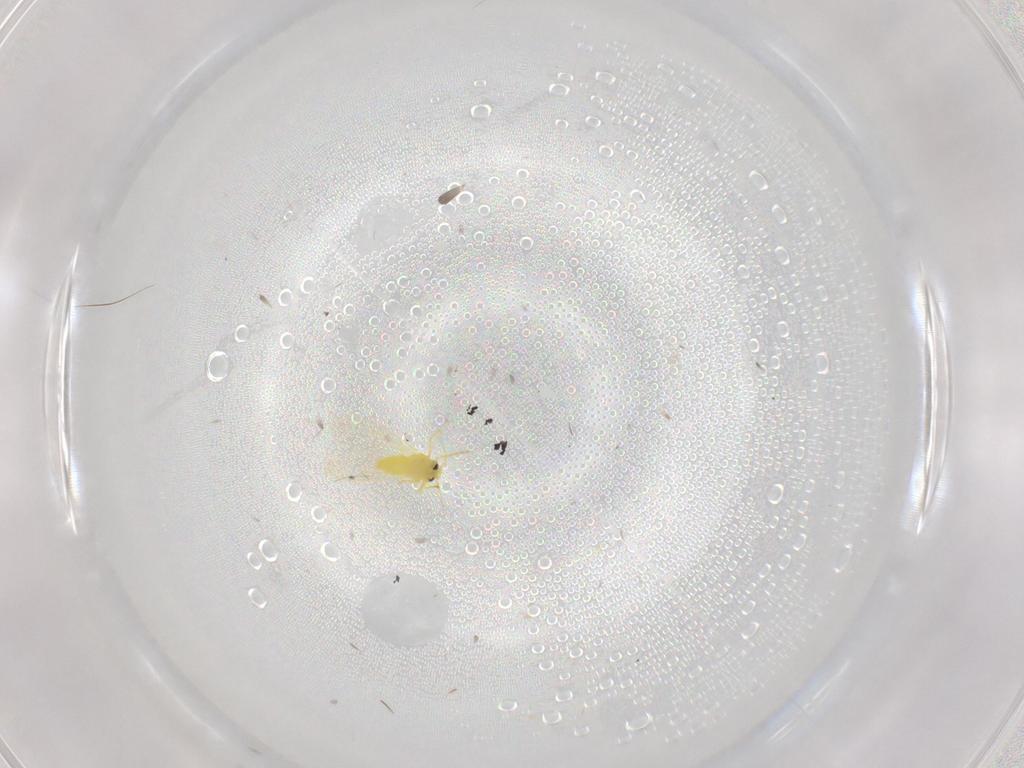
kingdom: Animalia
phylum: Arthropoda
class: Insecta
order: Hemiptera
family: Aleyrodidae
